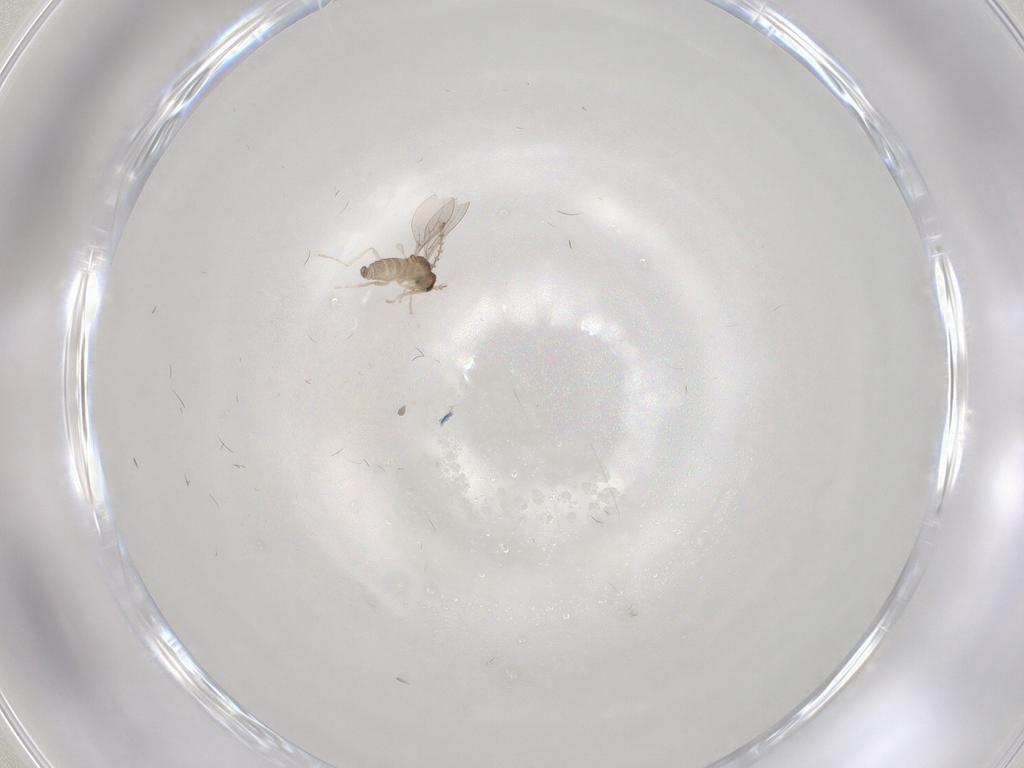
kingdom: Animalia
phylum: Arthropoda
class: Insecta
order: Diptera
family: Cecidomyiidae
